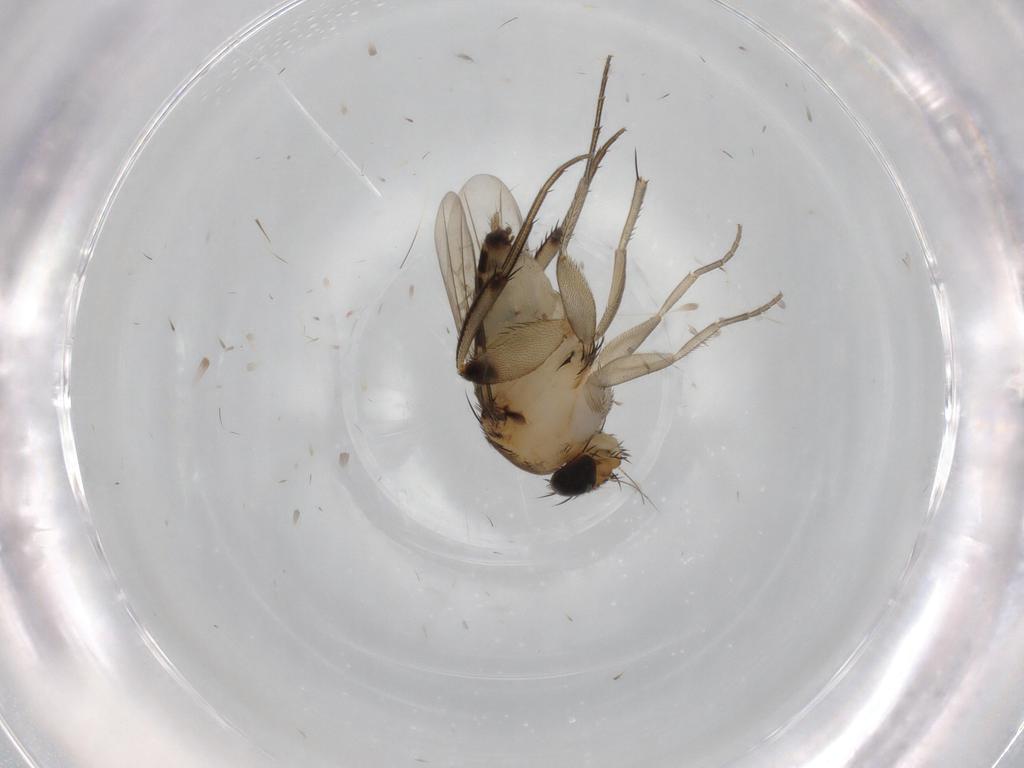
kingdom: Animalia
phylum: Arthropoda
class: Insecta
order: Diptera
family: Phoridae
